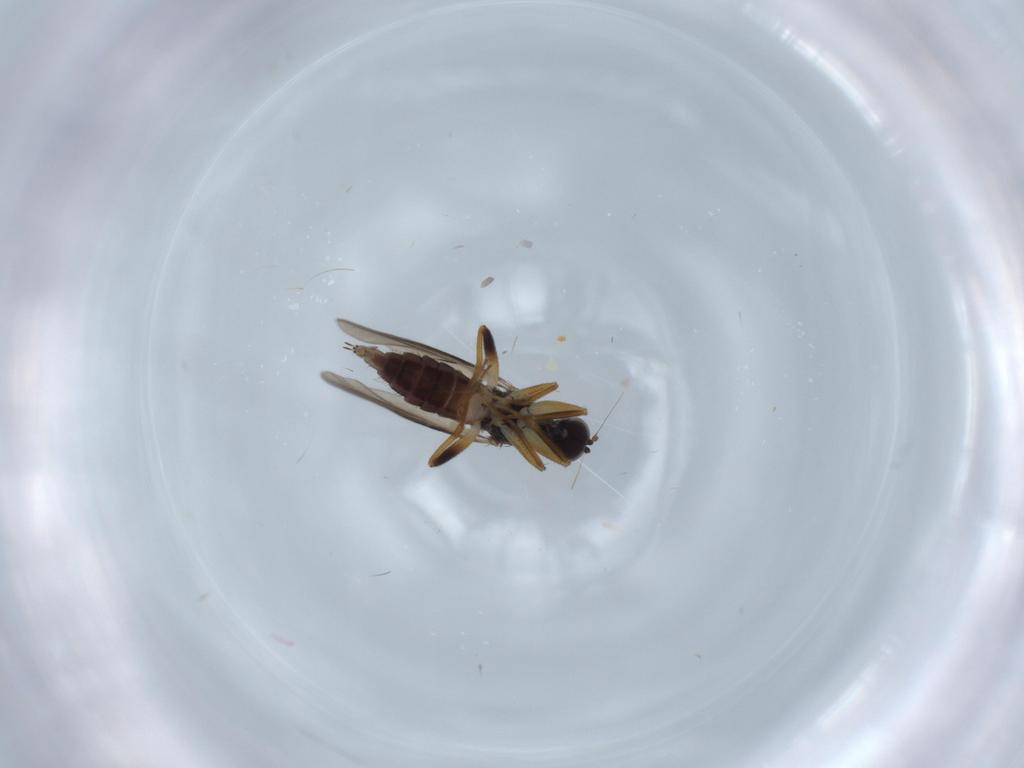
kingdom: Animalia
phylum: Arthropoda
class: Insecta
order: Diptera
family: Hybotidae
